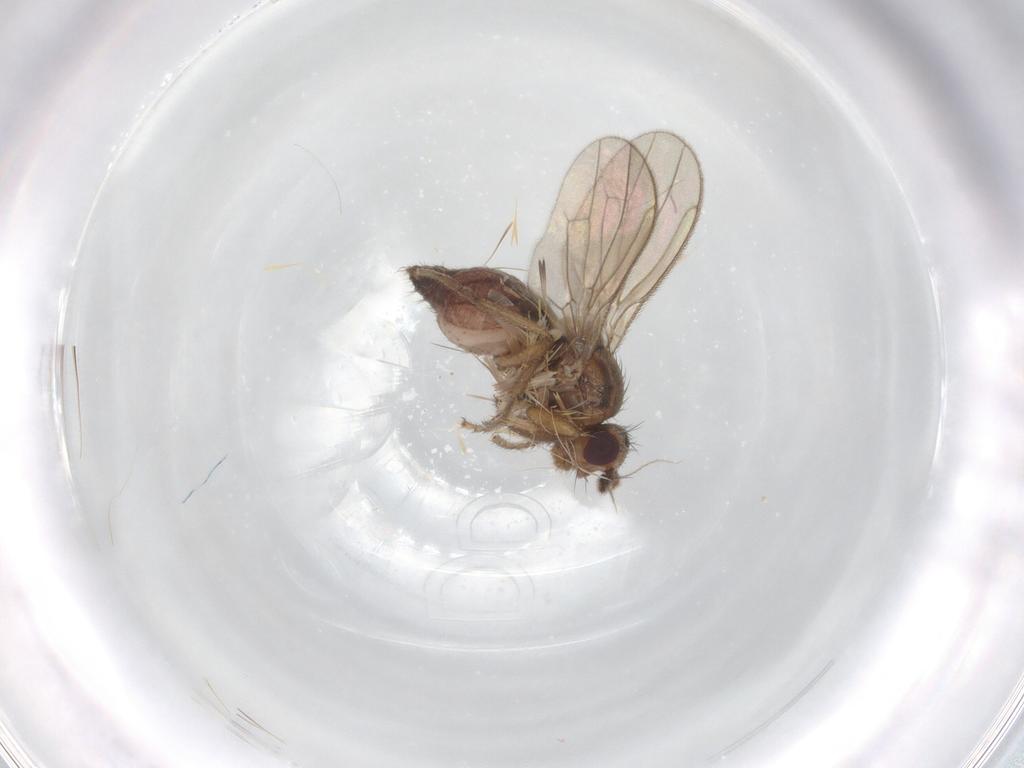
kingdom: Animalia
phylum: Arthropoda
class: Insecta
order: Diptera
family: Sphaeroceridae
